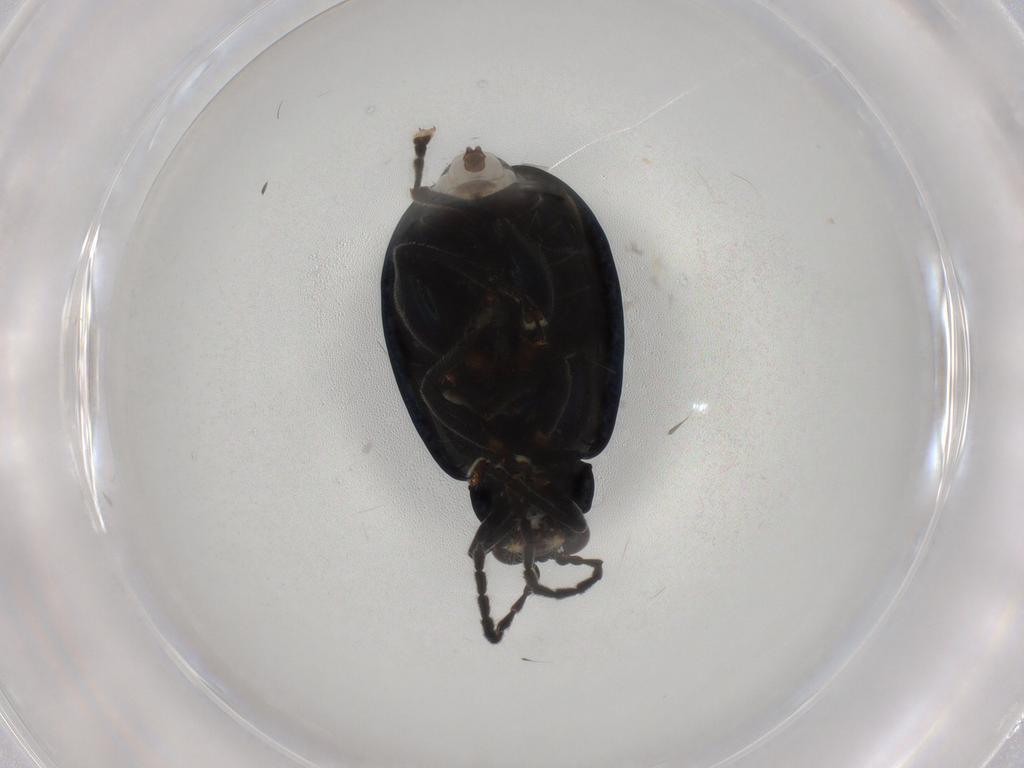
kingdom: Animalia
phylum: Arthropoda
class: Insecta
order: Coleoptera
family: Chrysomelidae
